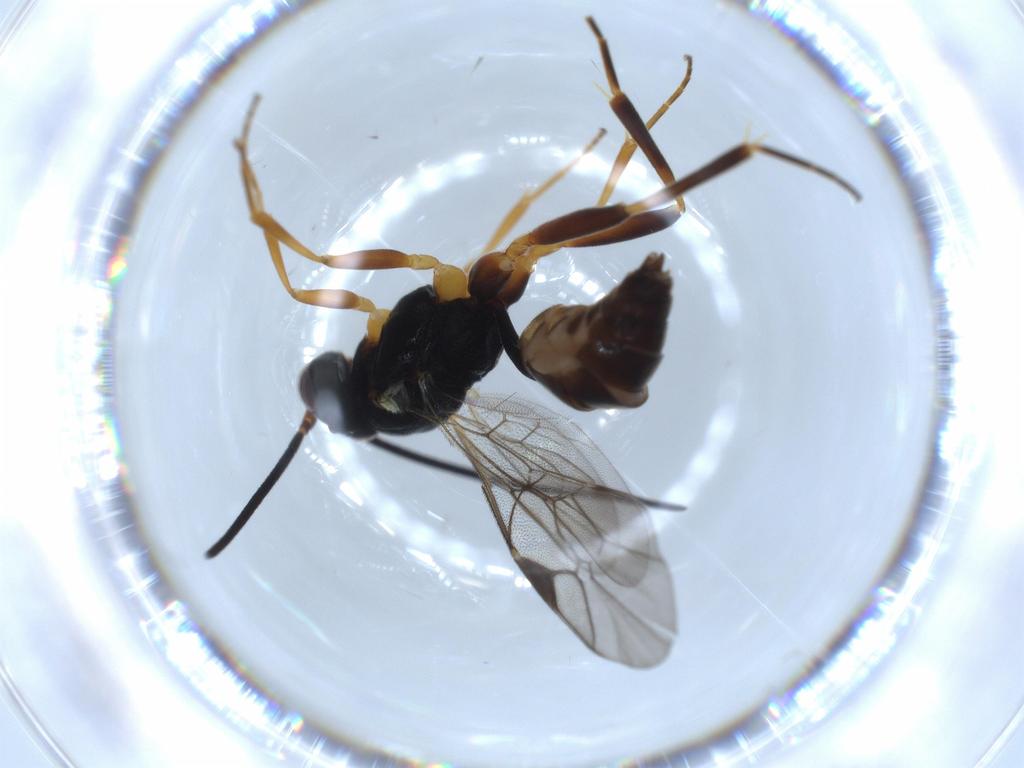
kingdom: Animalia
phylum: Arthropoda
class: Insecta
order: Hymenoptera
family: Ichneumonidae
